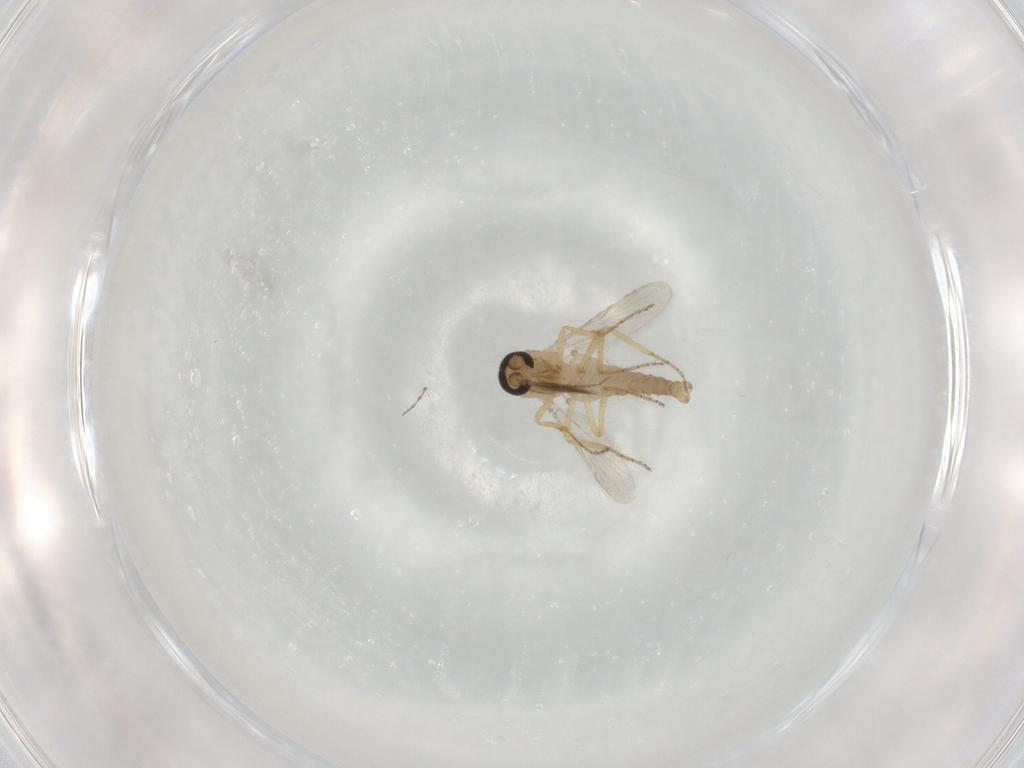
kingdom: Animalia
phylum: Arthropoda
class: Insecta
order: Diptera
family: Ceratopogonidae
